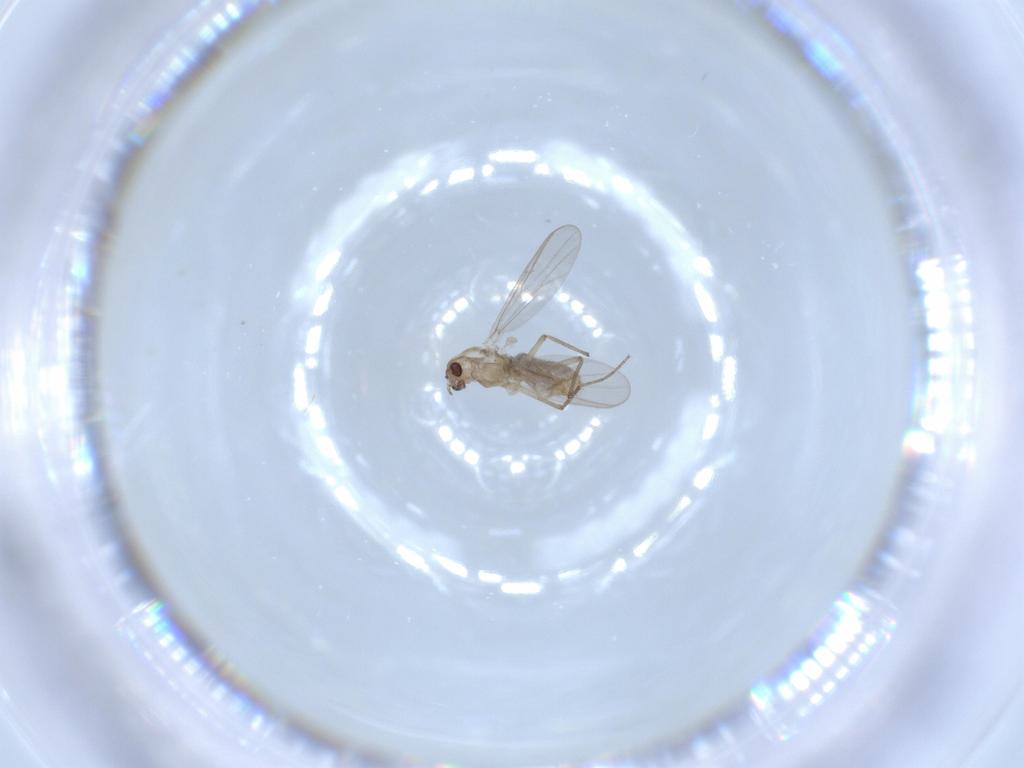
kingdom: Animalia
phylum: Arthropoda
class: Insecta
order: Diptera
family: Chironomidae
